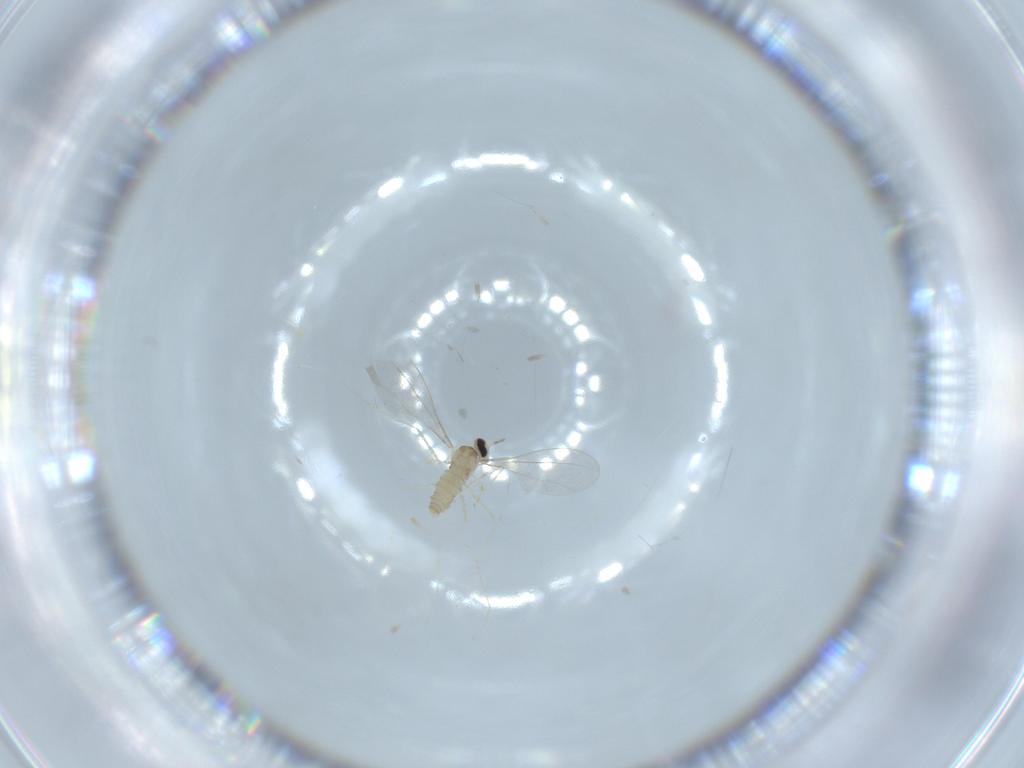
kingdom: Animalia
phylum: Arthropoda
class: Insecta
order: Diptera
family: Cecidomyiidae
